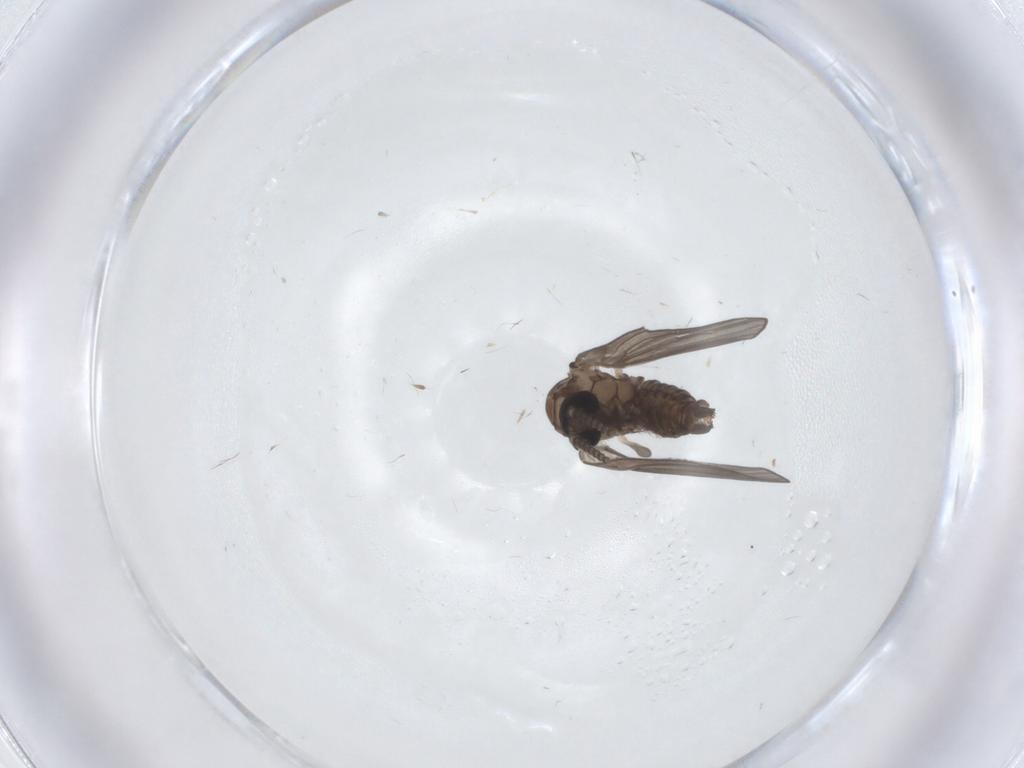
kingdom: Animalia
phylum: Arthropoda
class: Insecta
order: Diptera
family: Psychodidae
